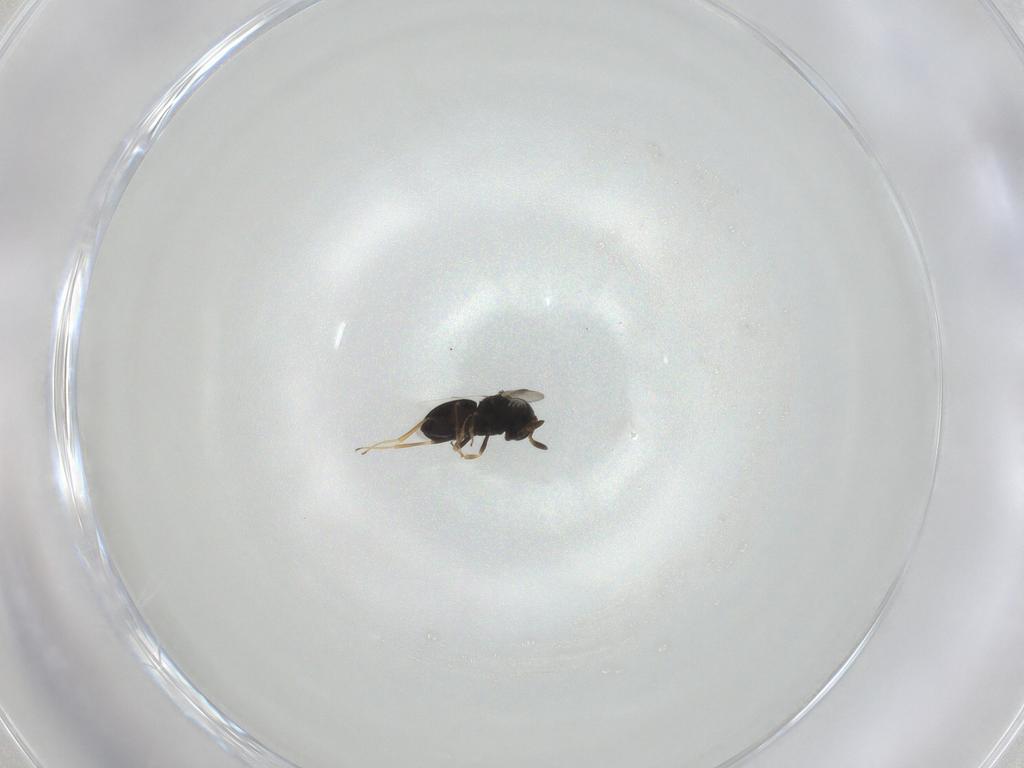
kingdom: Animalia
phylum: Arthropoda
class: Insecta
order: Hymenoptera
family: Scelionidae
